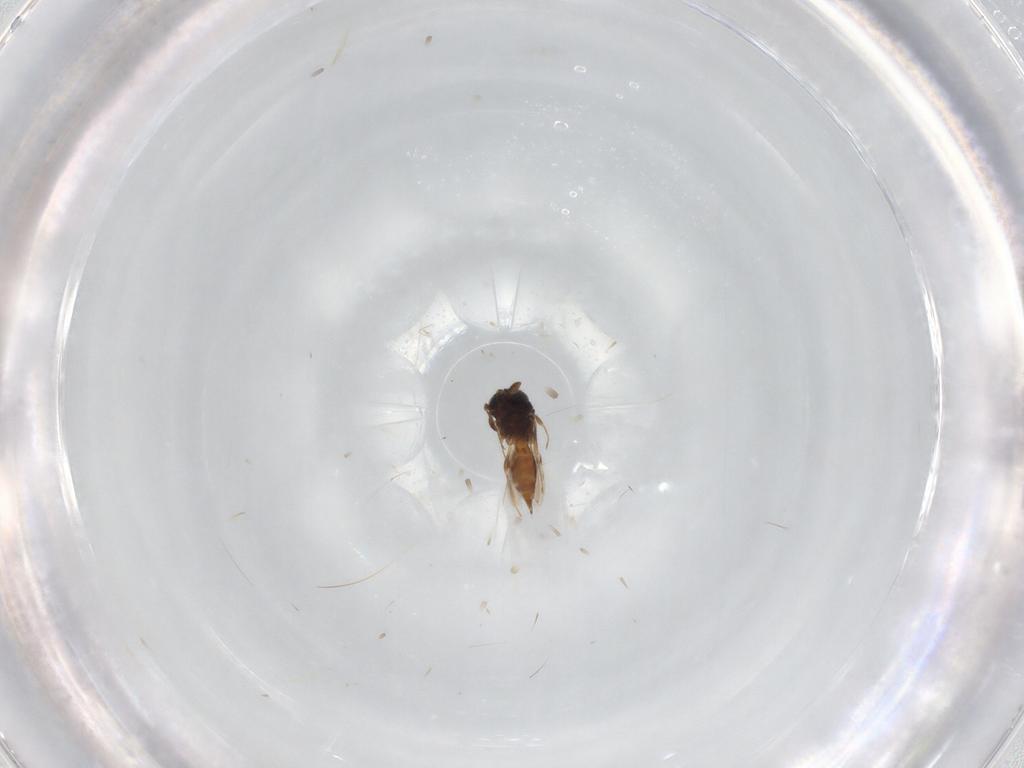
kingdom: Animalia
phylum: Arthropoda
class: Insecta
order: Hymenoptera
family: Scelionidae
